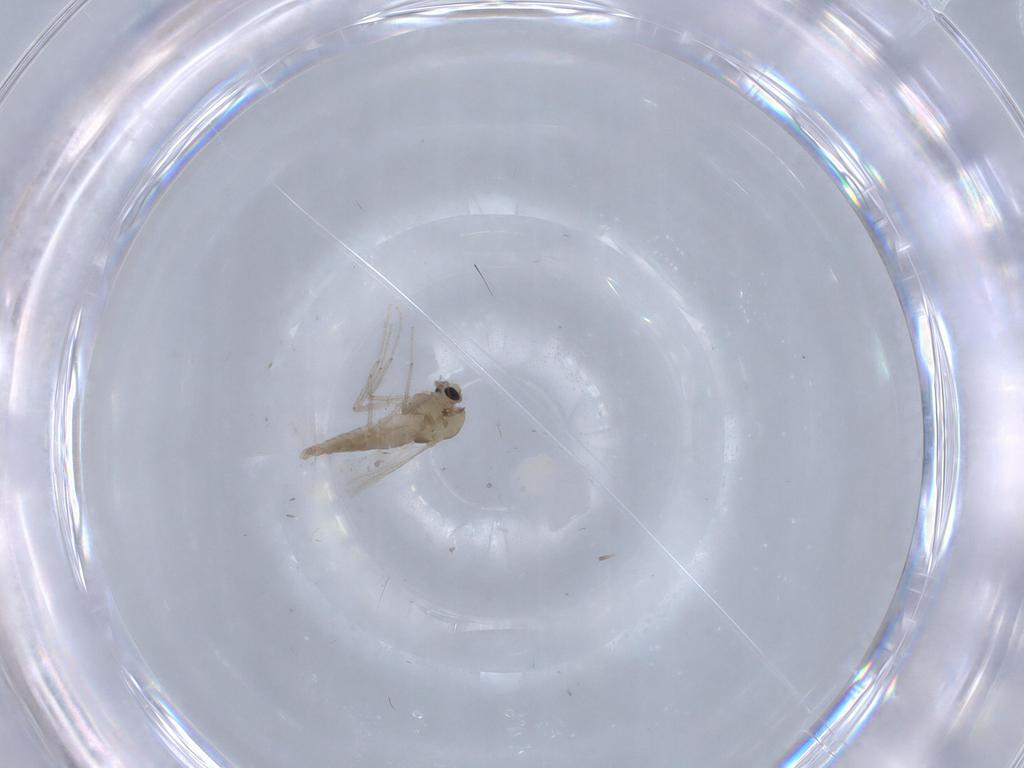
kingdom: Animalia
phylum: Arthropoda
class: Insecta
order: Diptera
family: Chironomidae
